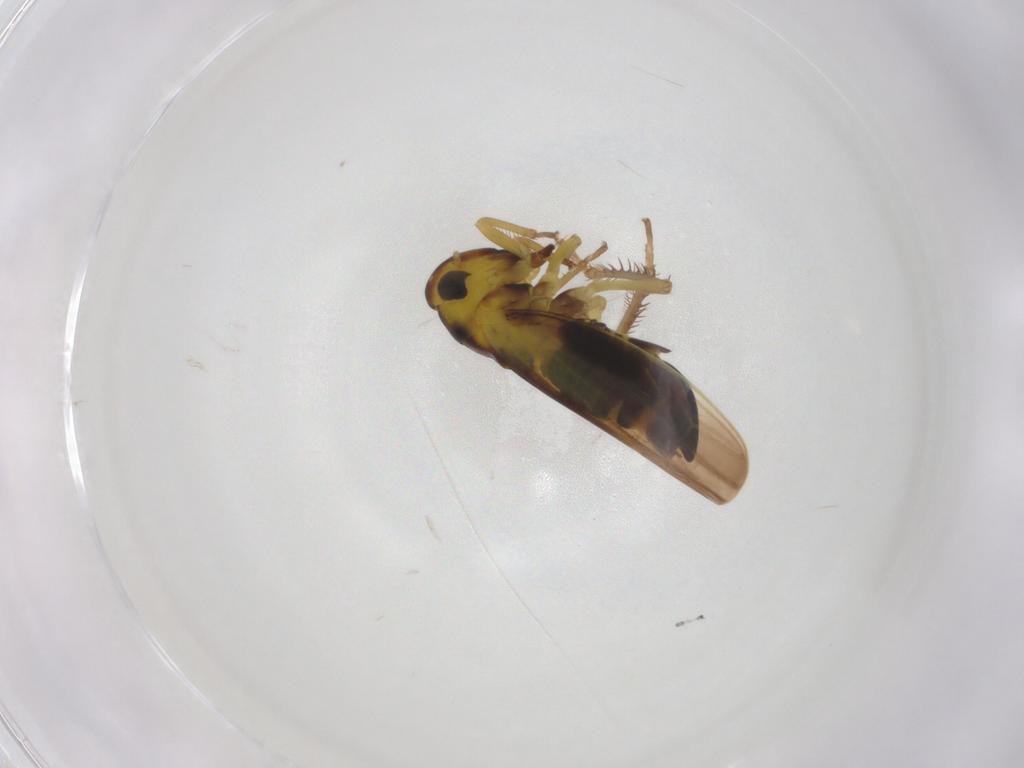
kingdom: Animalia
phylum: Arthropoda
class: Insecta
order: Hemiptera
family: Cicadellidae
